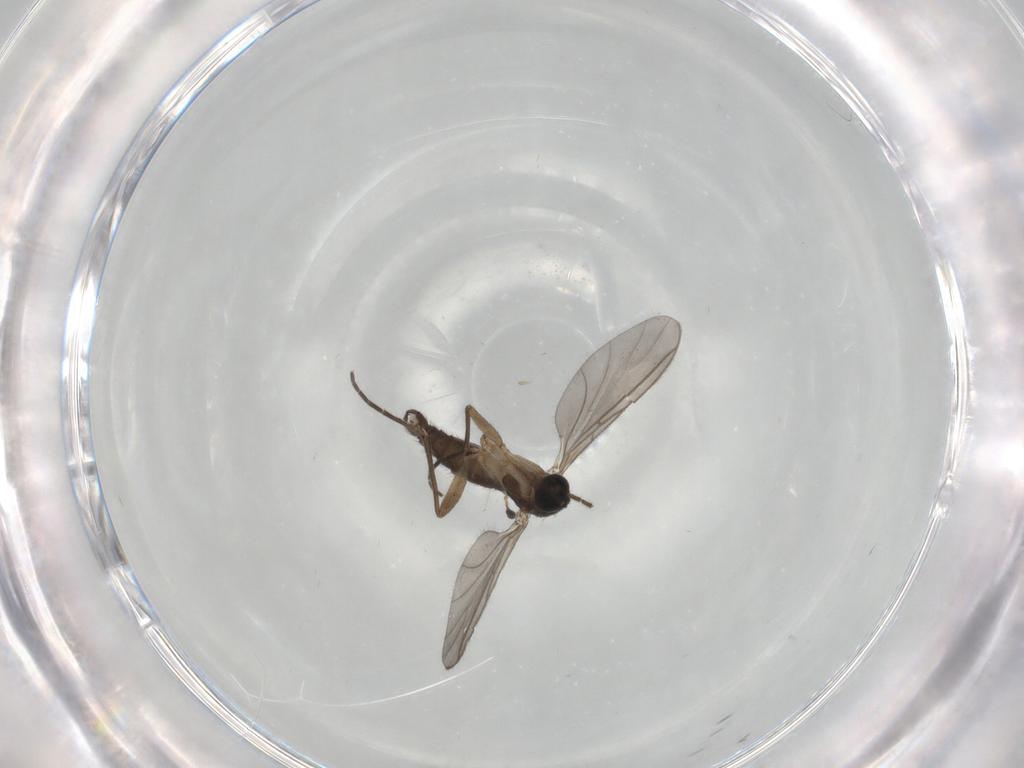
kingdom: Animalia
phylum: Arthropoda
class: Insecta
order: Diptera
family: Sciaridae
